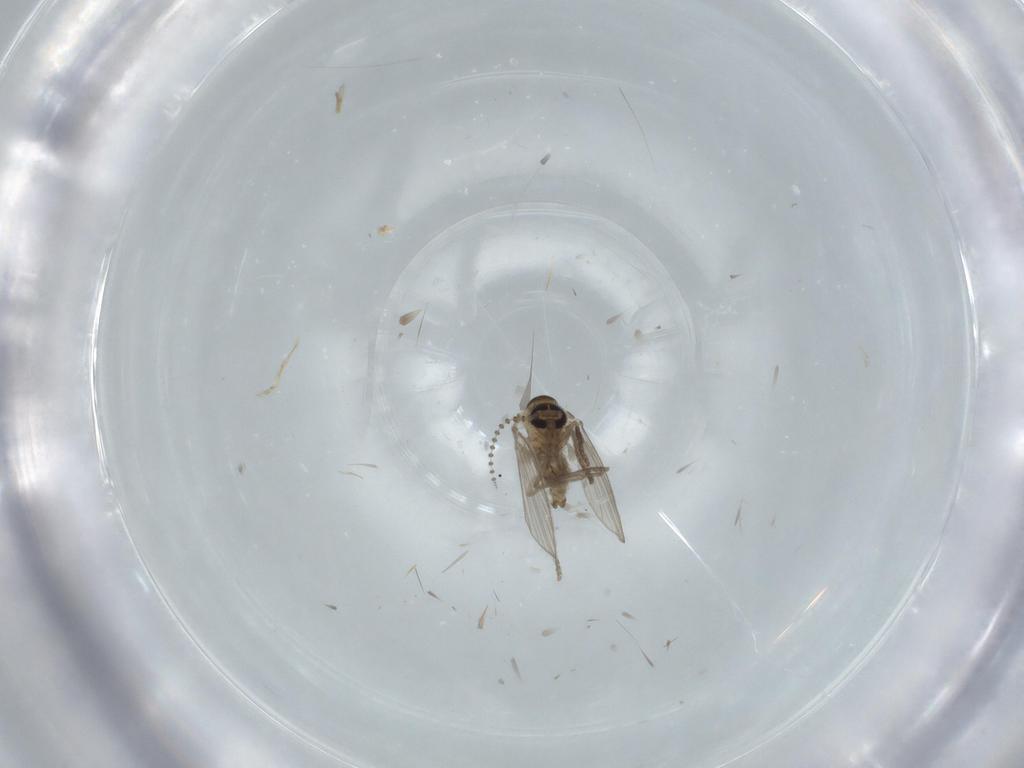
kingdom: Animalia
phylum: Arthropoda
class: Insecta
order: Diptera
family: Psychodidae
